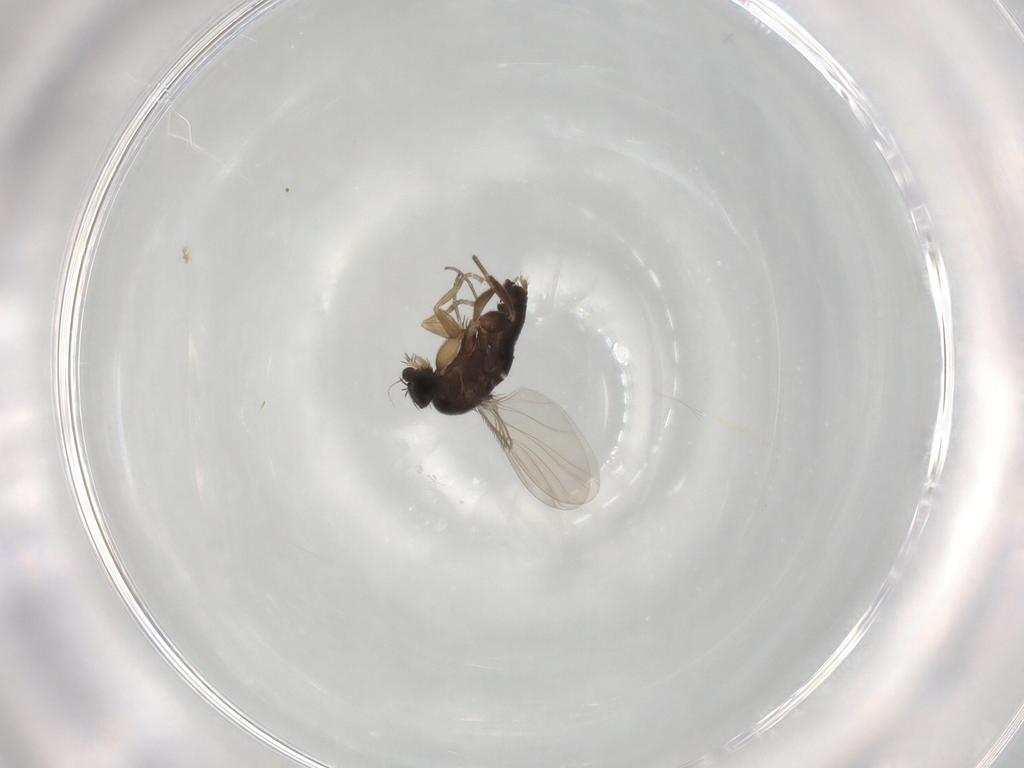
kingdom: Animalia
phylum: Arthropoda
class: Insecta
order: Diptera
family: Phoridae
